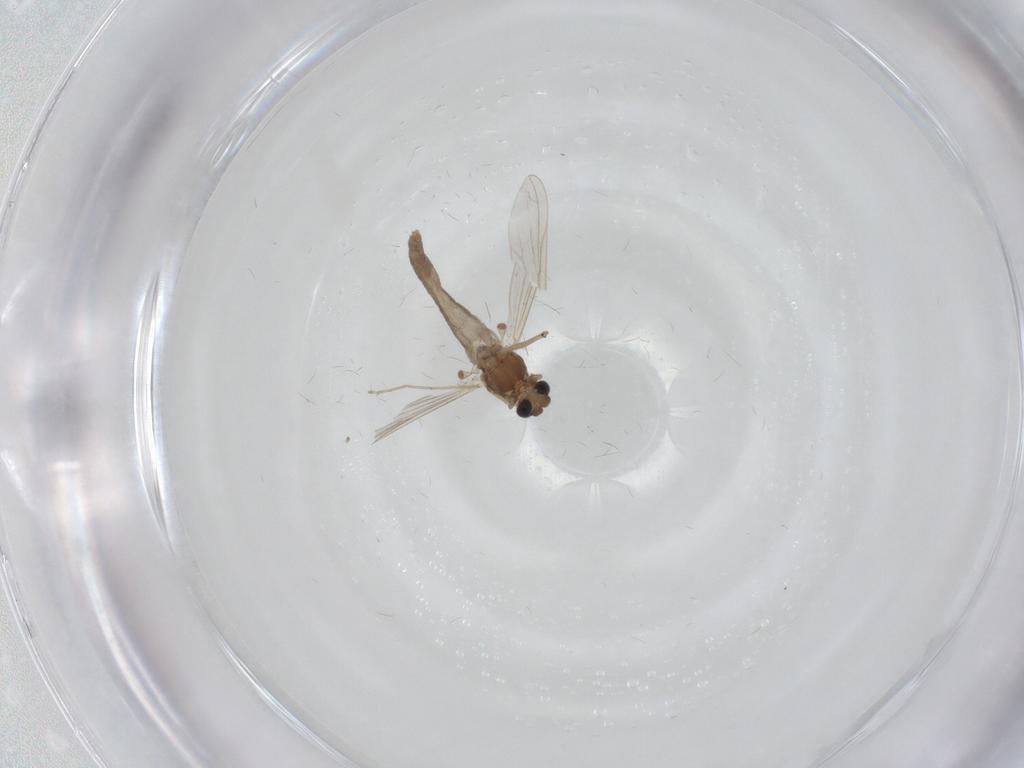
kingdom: Animalia
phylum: Arthropoda
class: Insecta
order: Diptera
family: Chironomidae
